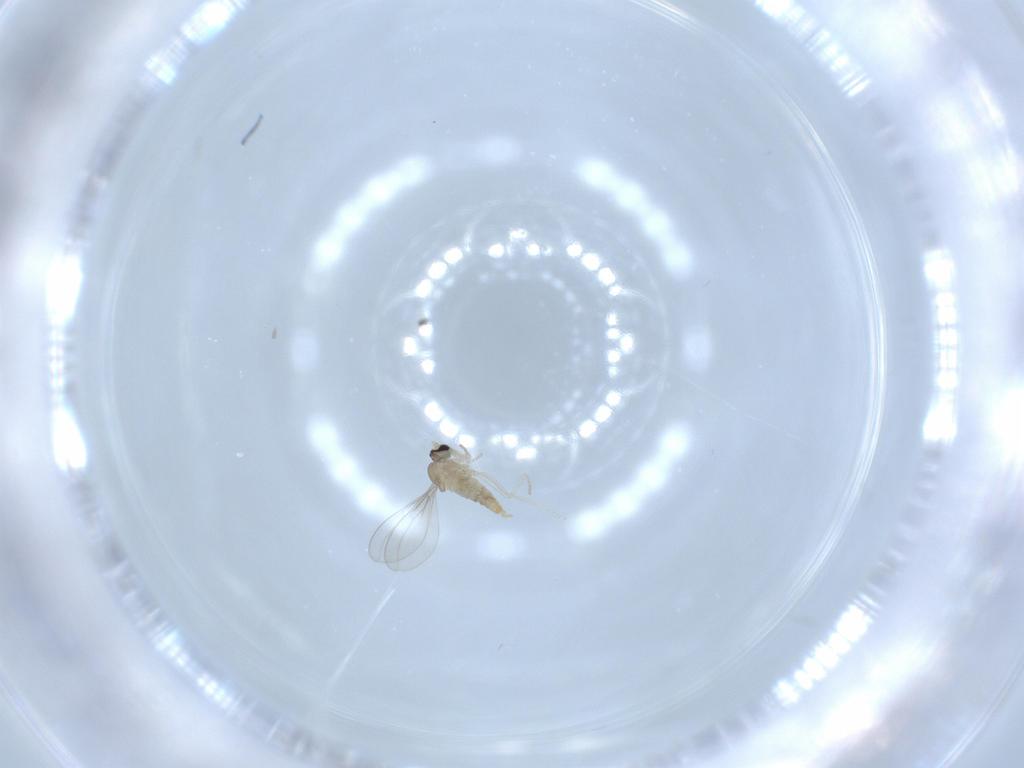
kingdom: Animalia
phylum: Arthropoda
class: Insecta
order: Diptera
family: Cecidomyiidae
